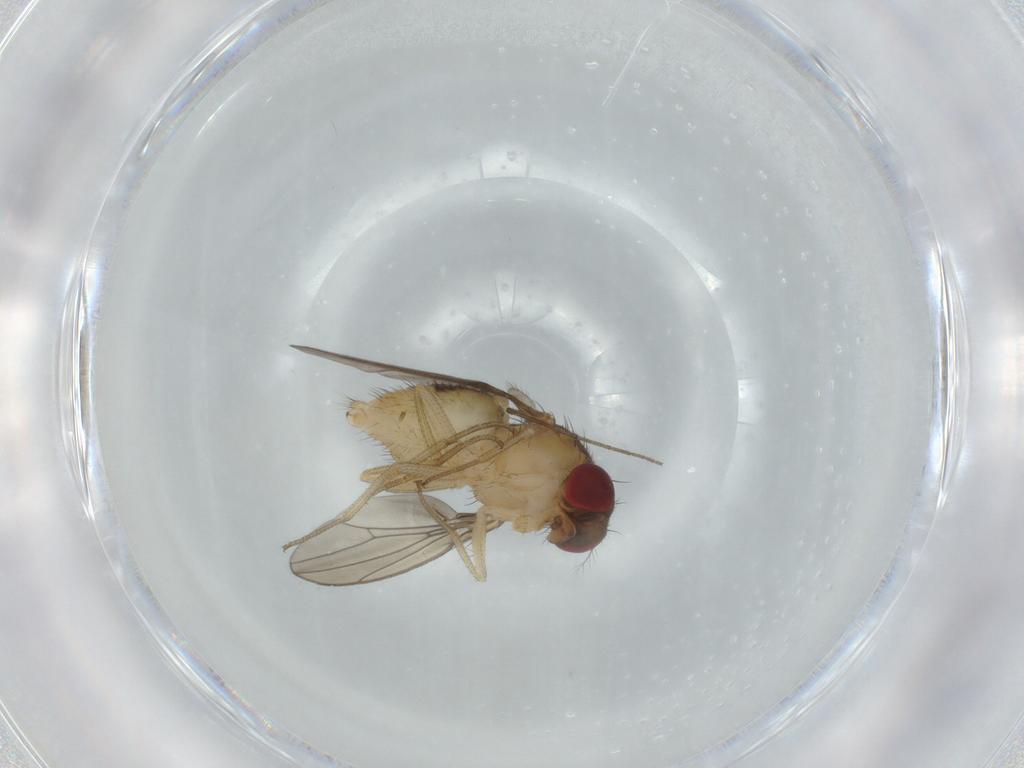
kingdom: Animalia
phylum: Arthropoda
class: Insecta
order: Diptera
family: Drosophilidae
